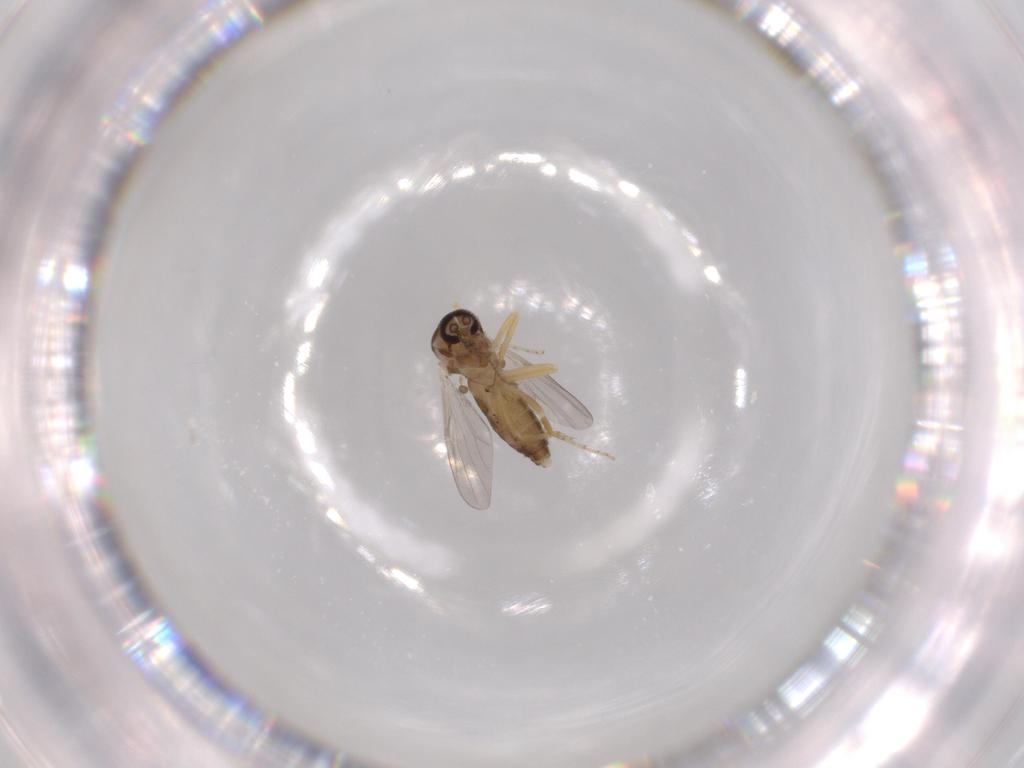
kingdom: Animalia
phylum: Arthropoda
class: Insecta
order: Diptera
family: Ceratopogonidae
